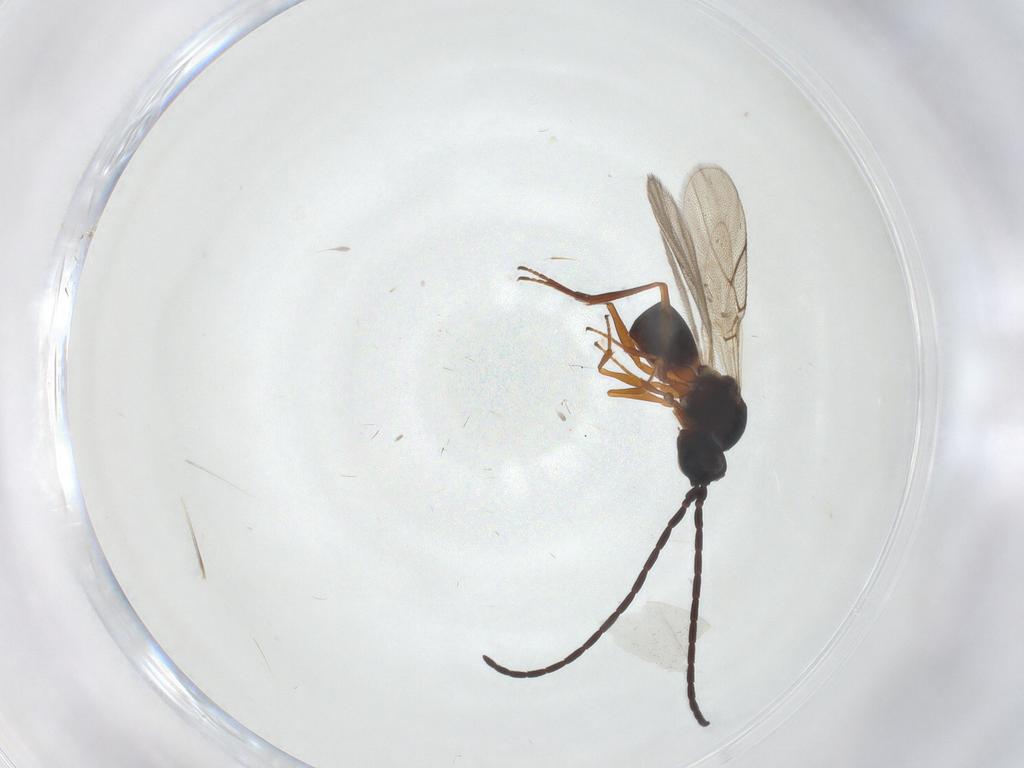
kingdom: Animalia
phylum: Arthropoda
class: Insecta
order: Hymenoptera
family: Figitidae
